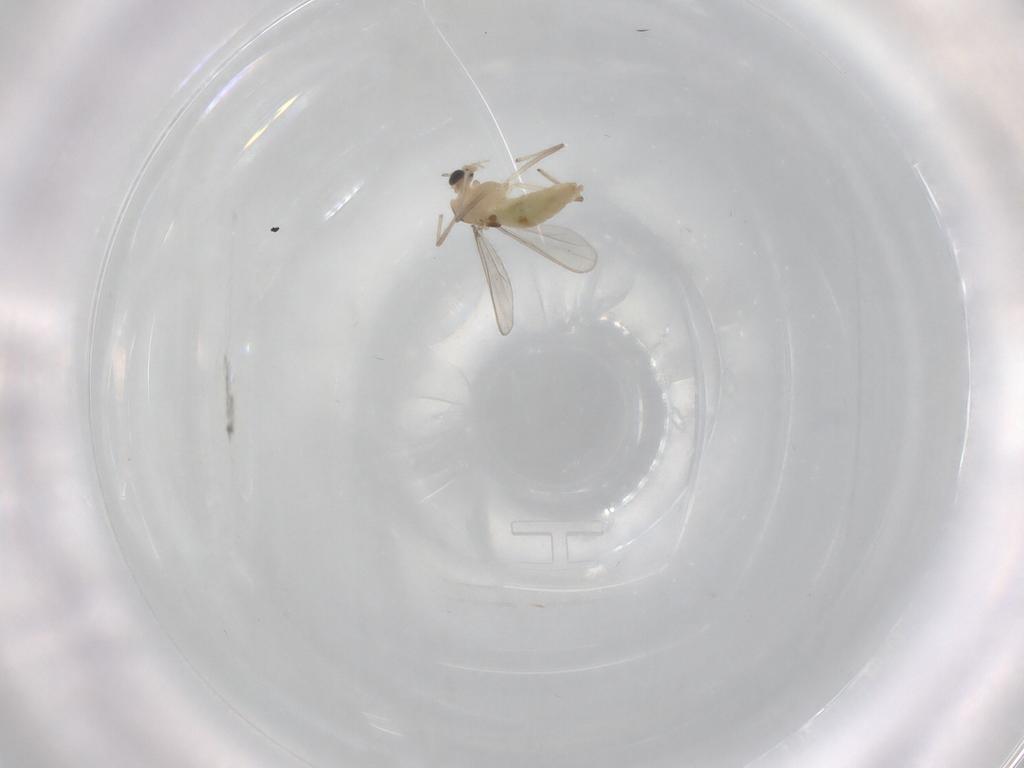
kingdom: Animalia
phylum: Arthropoda
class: Insecta
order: Diptera
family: Chironomidae
